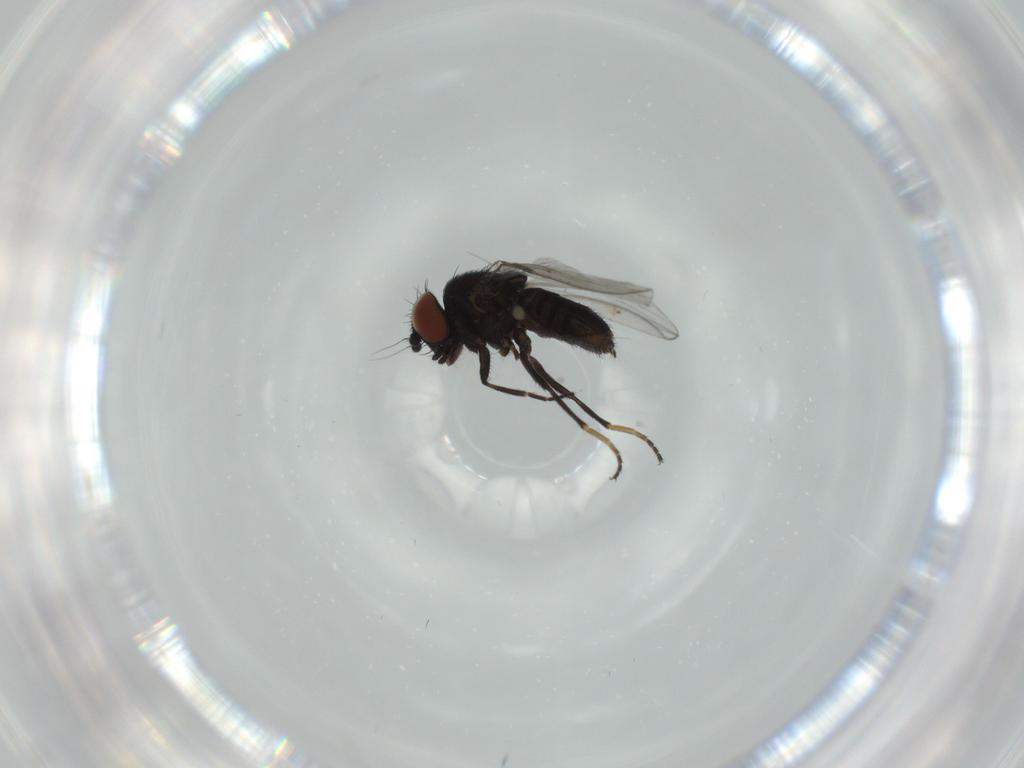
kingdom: Animalia
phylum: Arthropoda
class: Insecta
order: Diptera
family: Milichiidae
